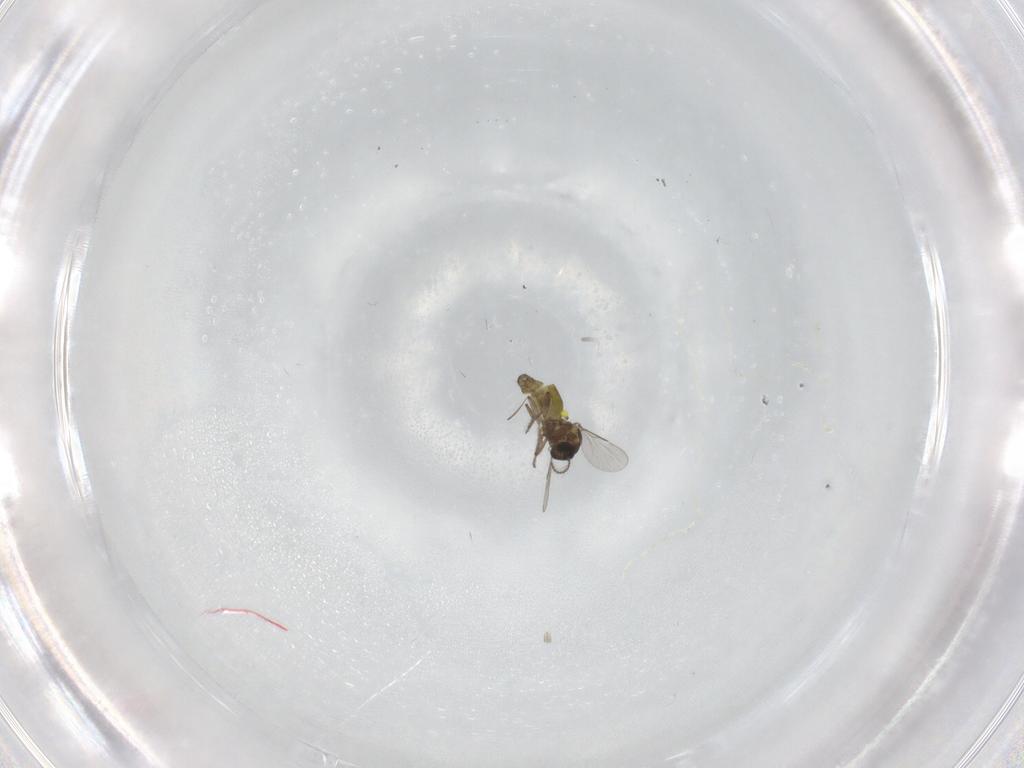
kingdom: Animalia
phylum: Arthropoda
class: Insecta
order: Diptera
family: Ceratopogonidae
